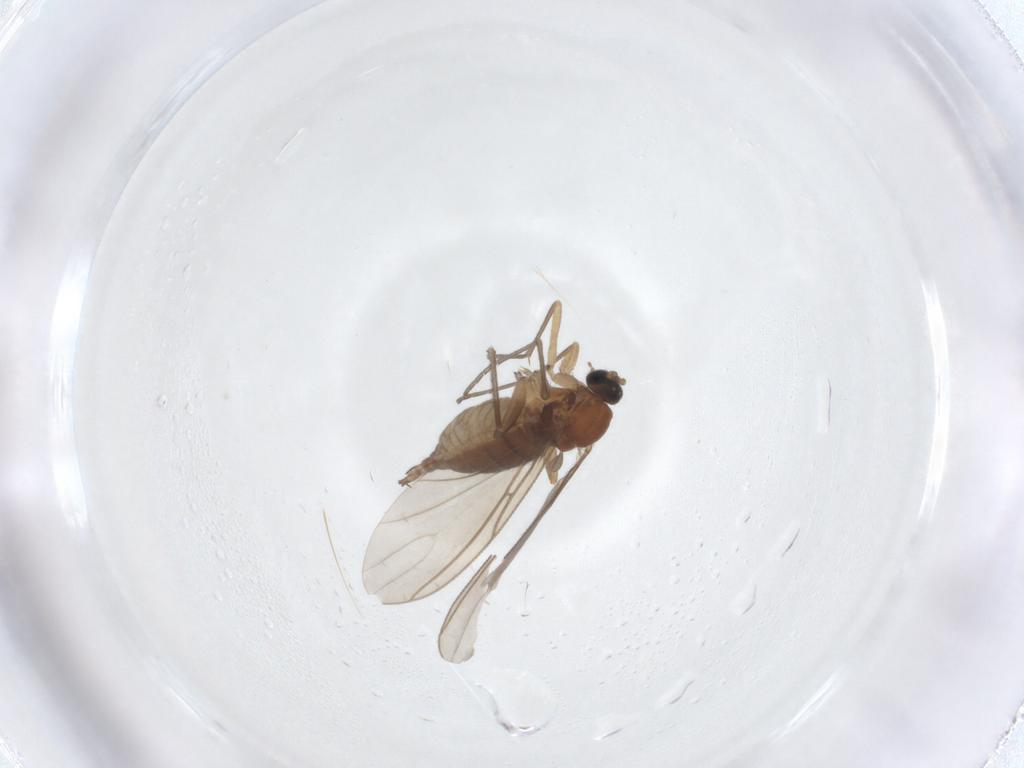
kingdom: Animalia
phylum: Arthropoda
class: Insecta
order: Diptera
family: Sciaridae
